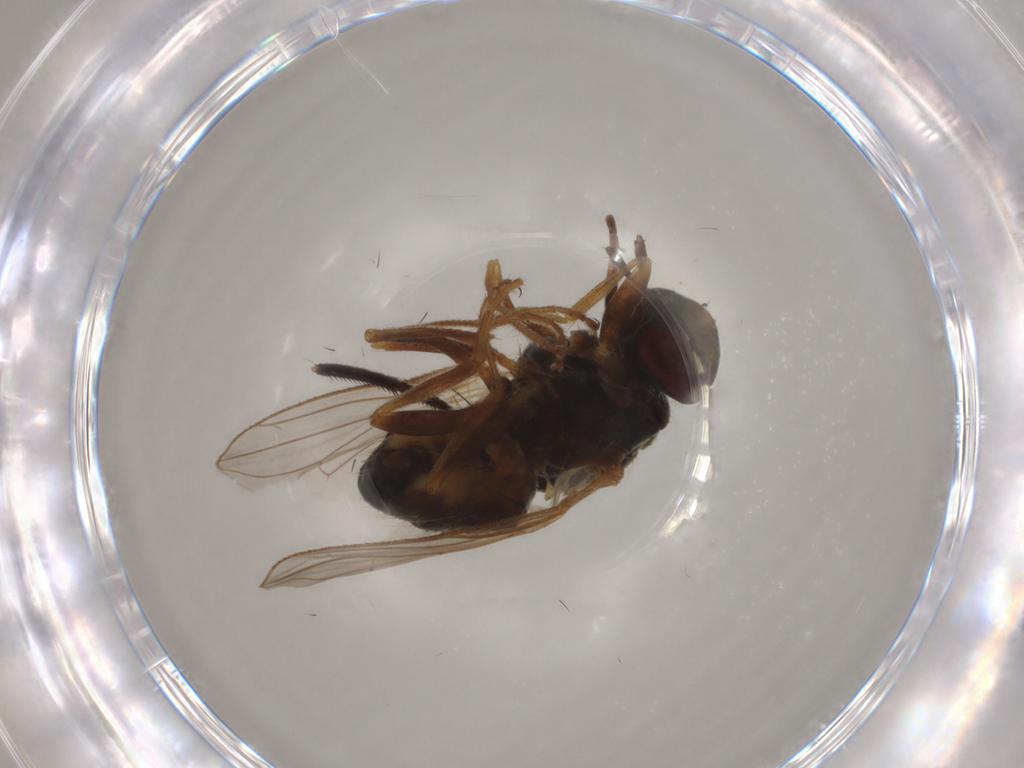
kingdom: Animalia
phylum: Arthropoda
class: Insecta
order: Diptera
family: Muscidae
